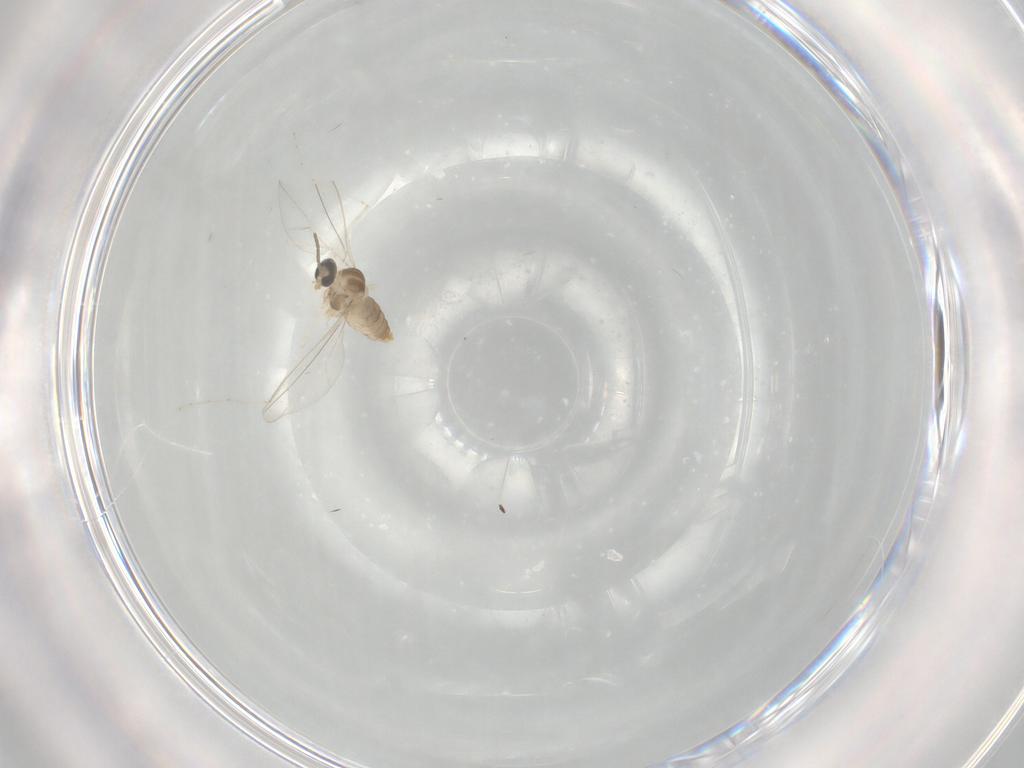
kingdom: Animalia
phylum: Arthropoda
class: Insecta
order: Diptera
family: Cecidomyiidae
